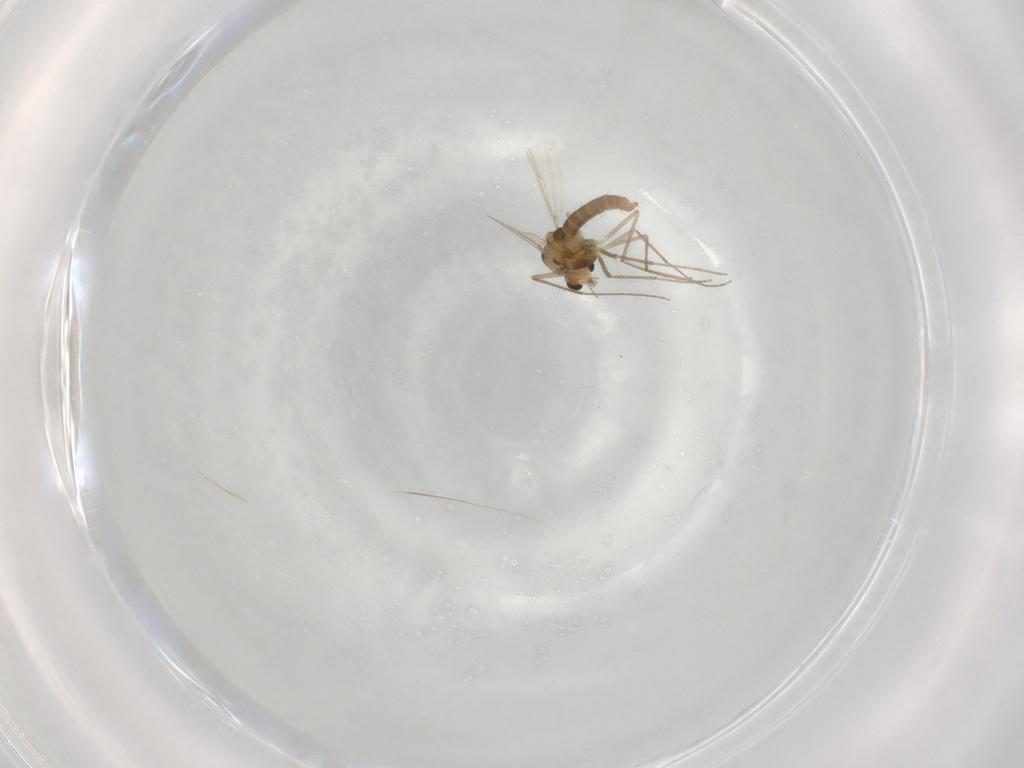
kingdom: Animalia
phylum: Arthropoda
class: Insecta
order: Diptera
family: Chironomidae
